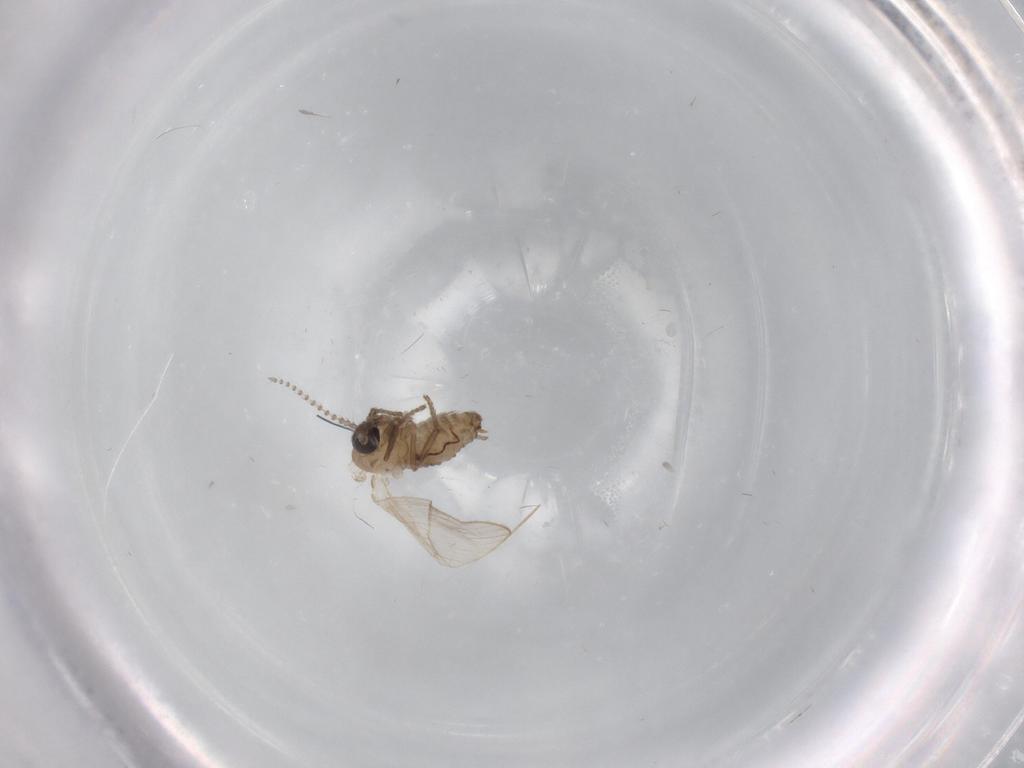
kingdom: Animalia
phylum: Arthropoda
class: Insecta
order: Diptera
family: Psychodidae
